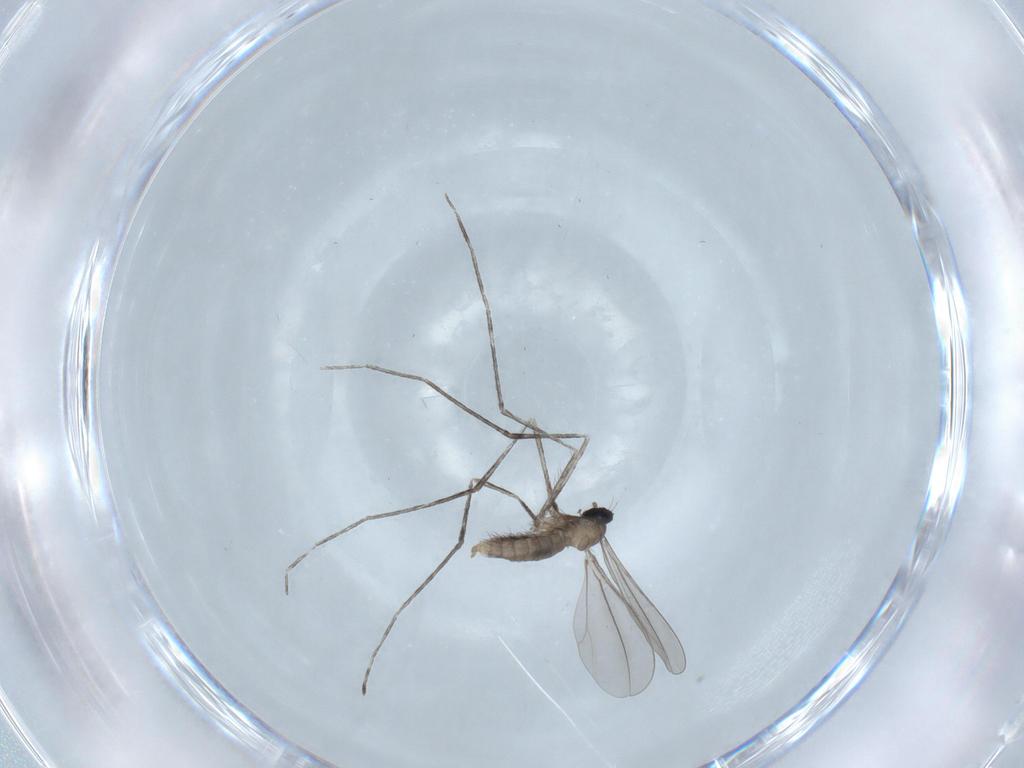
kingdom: Animalia
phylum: Arthropoda
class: Insecta
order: Diptera
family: Cecidomyiidae
